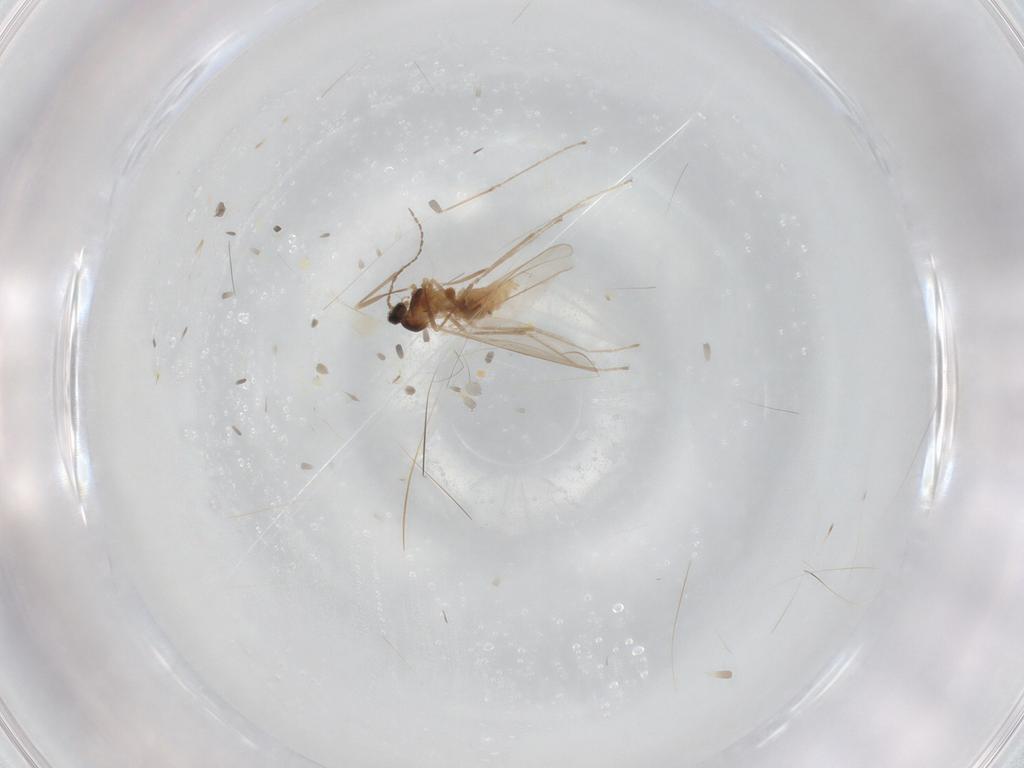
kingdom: Animalia
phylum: Arthropoda
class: Insecta
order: Diptera
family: Cecidomyiidae
